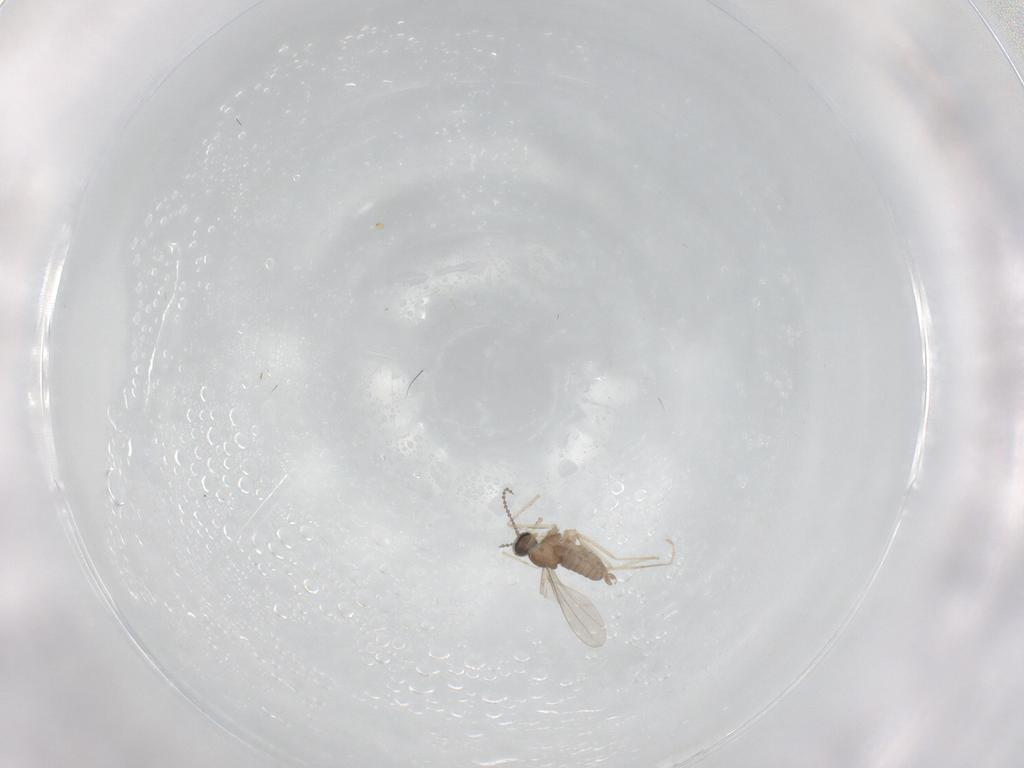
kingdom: Animalia
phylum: Arthropoda
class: Insecta
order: Diptera
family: Cecidomyiidae
